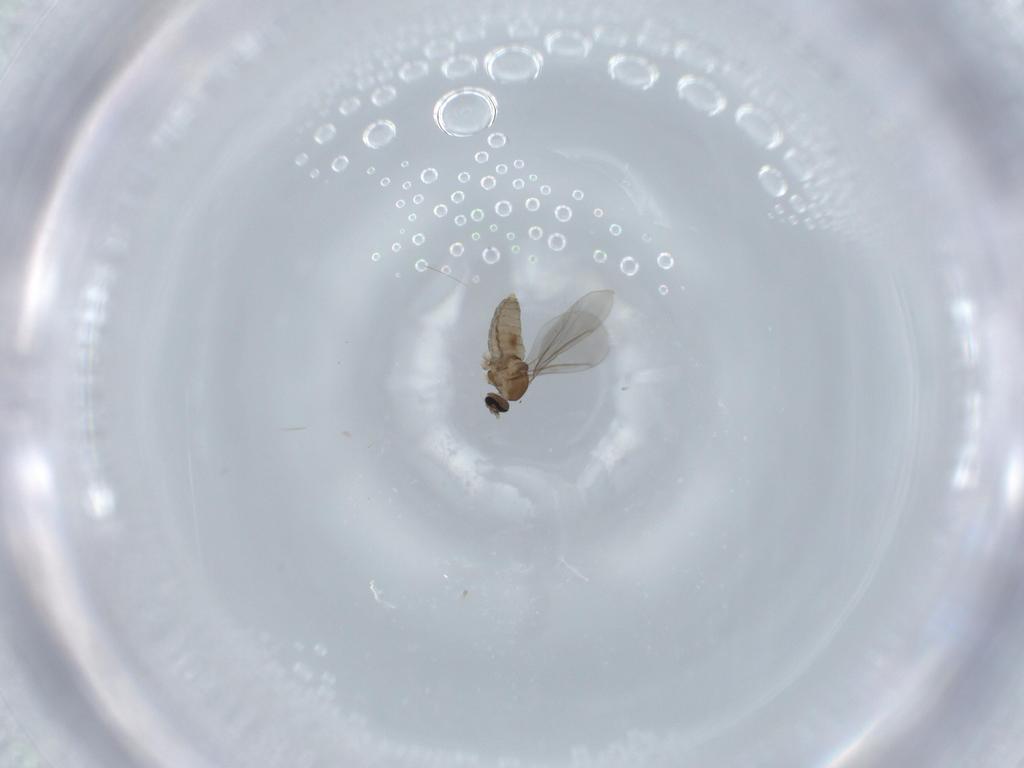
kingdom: Animalia
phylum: Arthropoda
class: Insecta
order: Diptera
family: Cecidomyiidae
